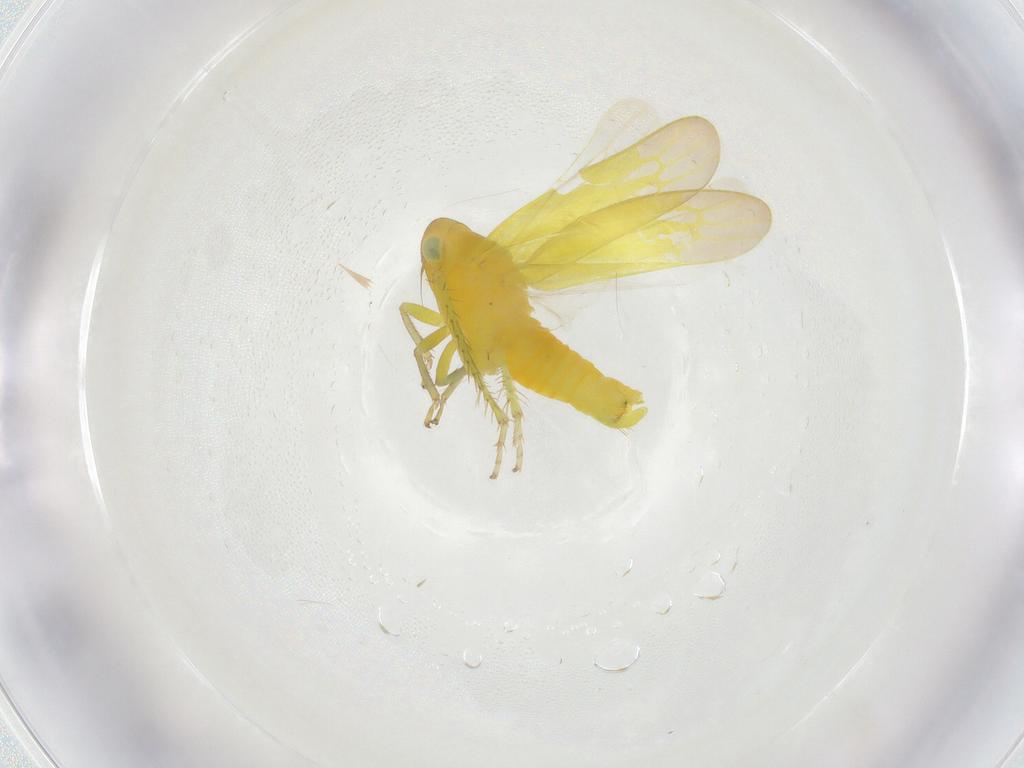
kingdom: Animalia
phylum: Arthropoda
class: Insecta
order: Hemiptera
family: Cicadellidae
